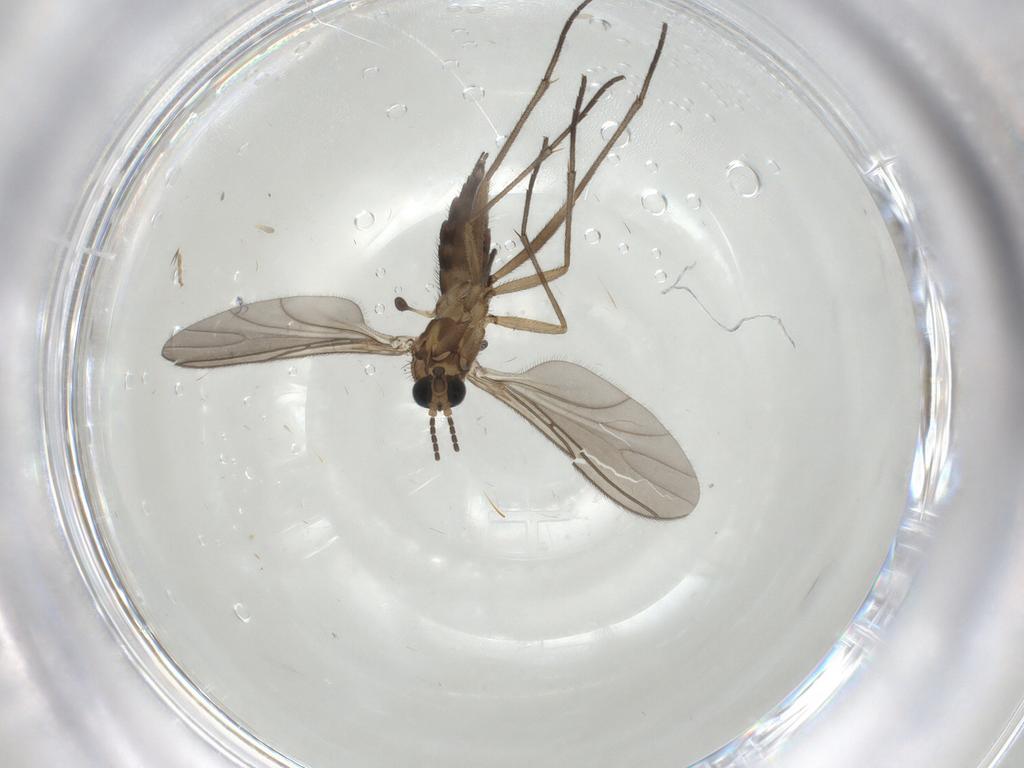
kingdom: Animalia
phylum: Arthropoda
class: Insecta
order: Diptera
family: Sciaridae
